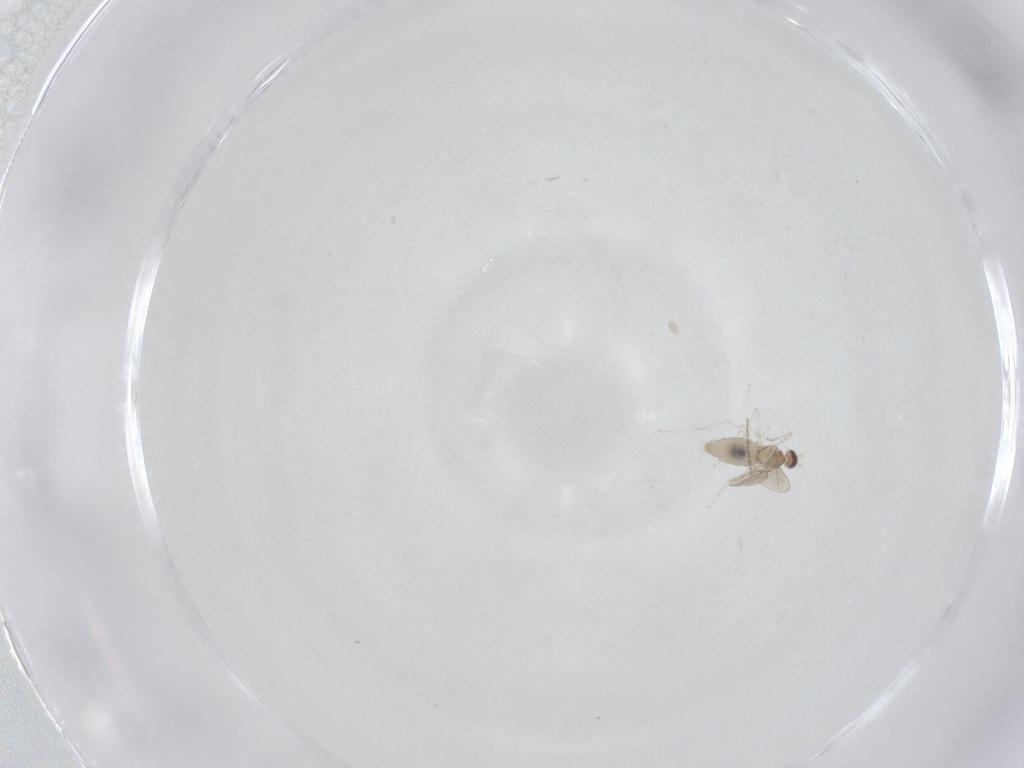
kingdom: Animalia
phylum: Arthropoda
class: Insecta
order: Diptera
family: Cecidomyiidae
